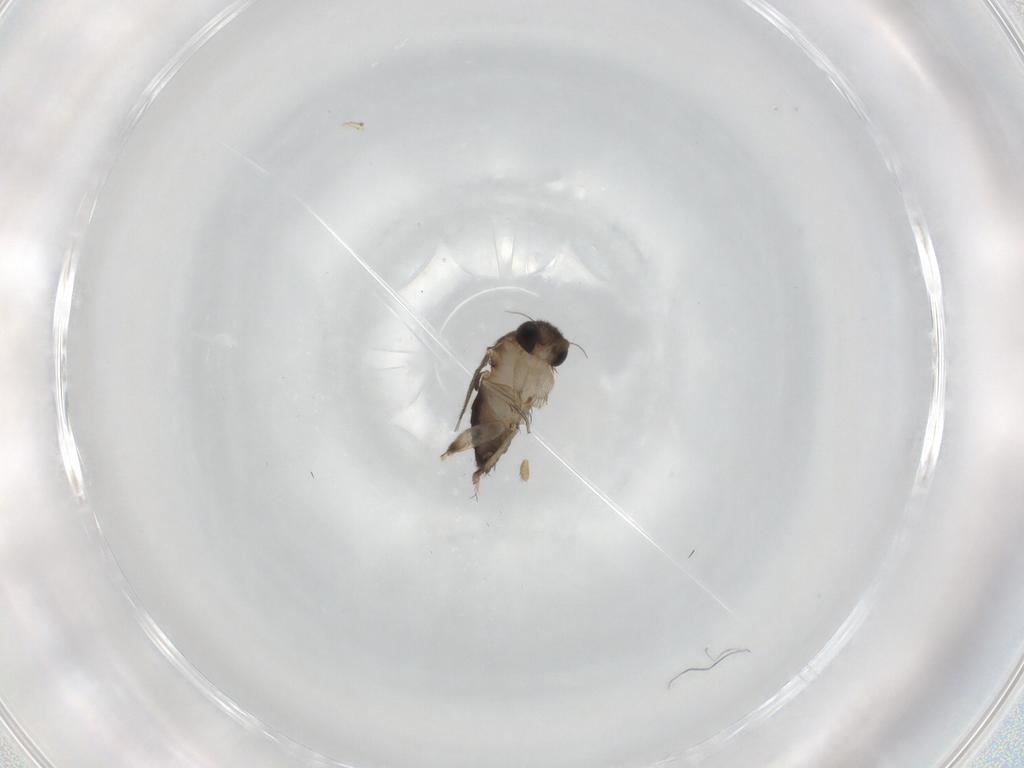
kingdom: Animalia
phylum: Arthropoda
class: Insecta
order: Diptera
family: Phoridae
